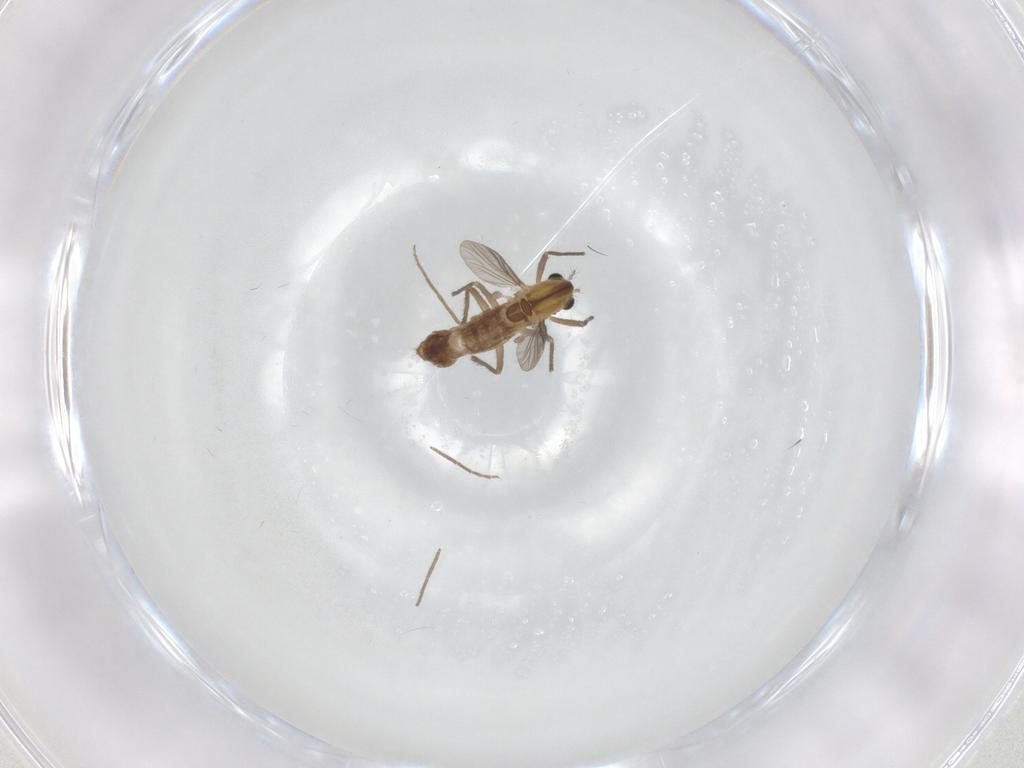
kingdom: Animalia
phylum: Arthropoda
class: Insecta
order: Diptera
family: Chironomidae
